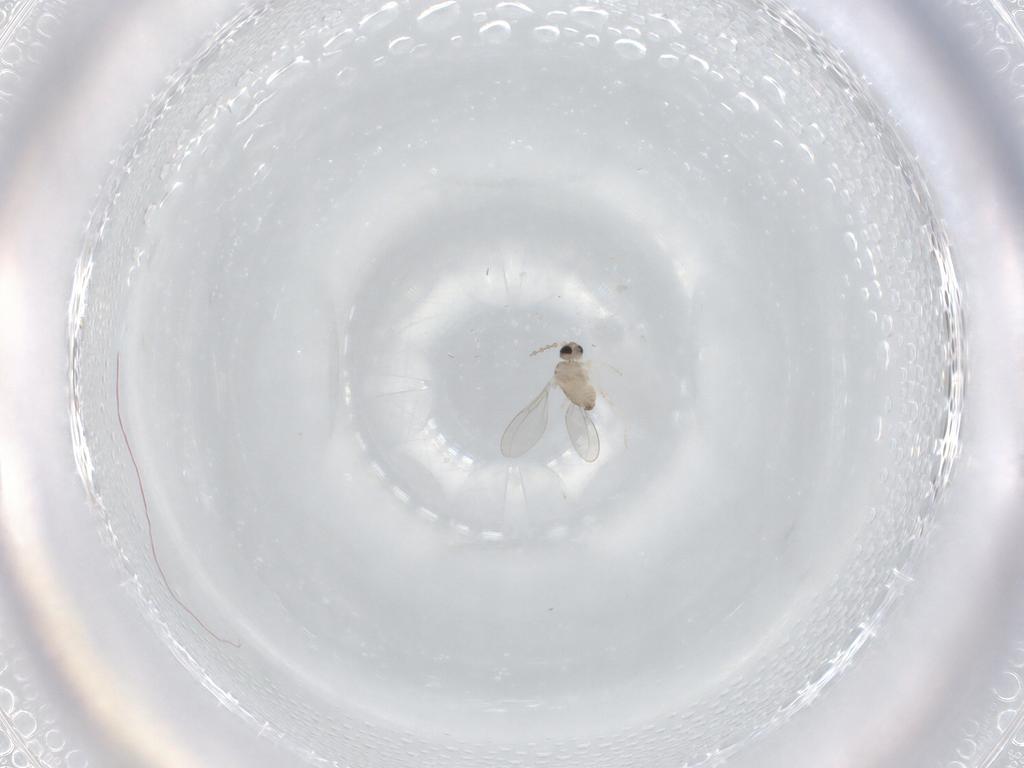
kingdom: Animalia
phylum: Arthropoda
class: Insecta
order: Diptera
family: Cecidomyiidae
